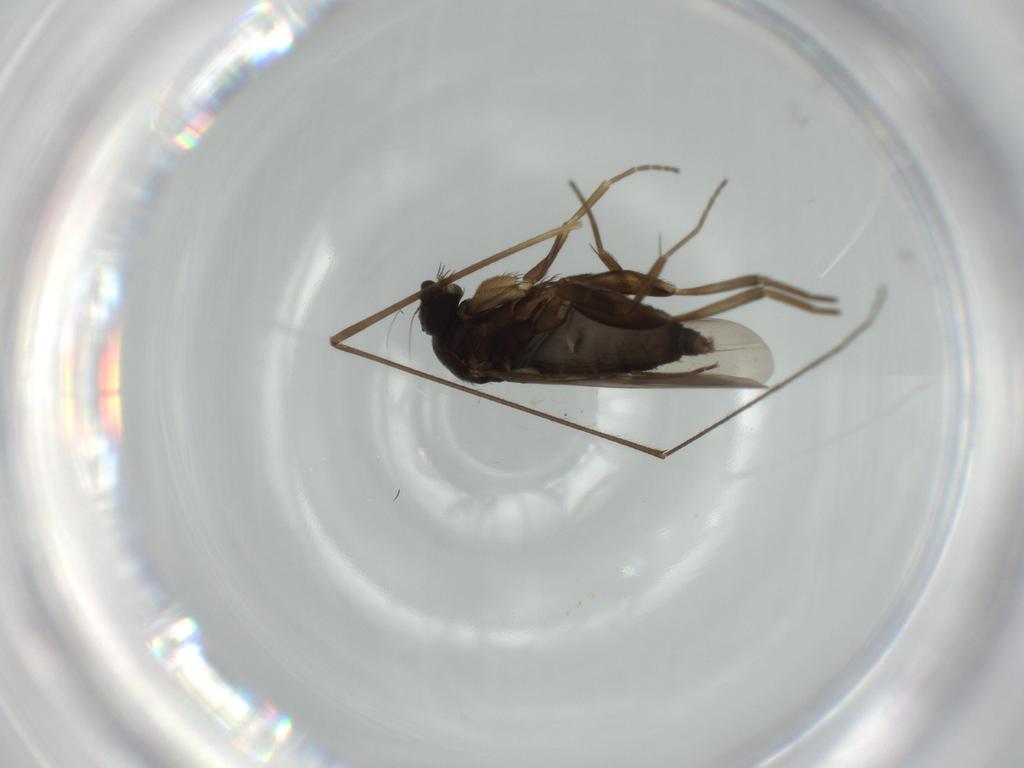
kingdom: Animalia
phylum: Arthropoda
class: Insecta
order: Diptera
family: Phoridae
